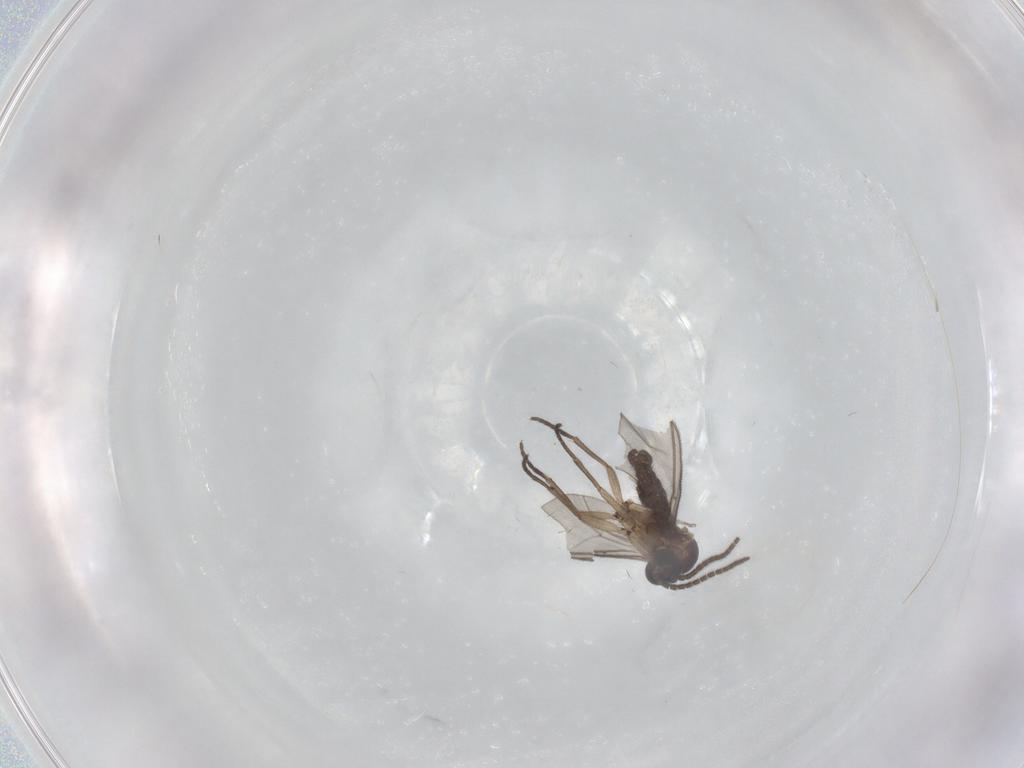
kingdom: Animalia
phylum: Arthropoda
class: Insecta
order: Diptera
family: Sciaridae
